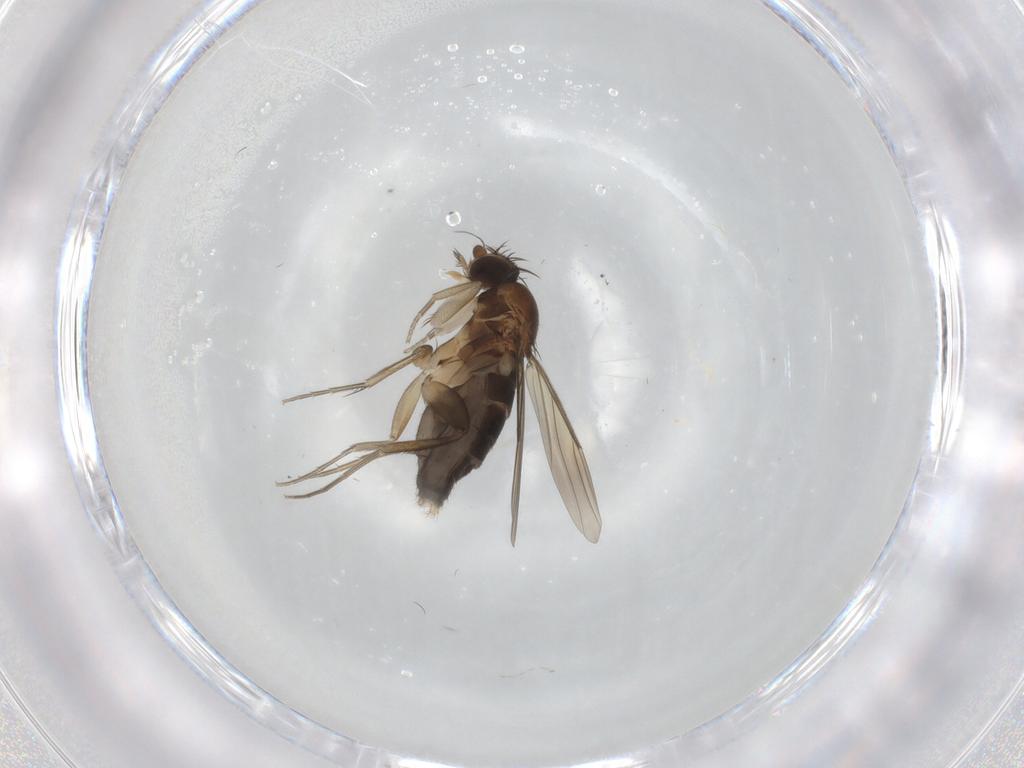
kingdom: Animalia
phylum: Arthropoda
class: Insecta
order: Diptera
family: Phoridae
